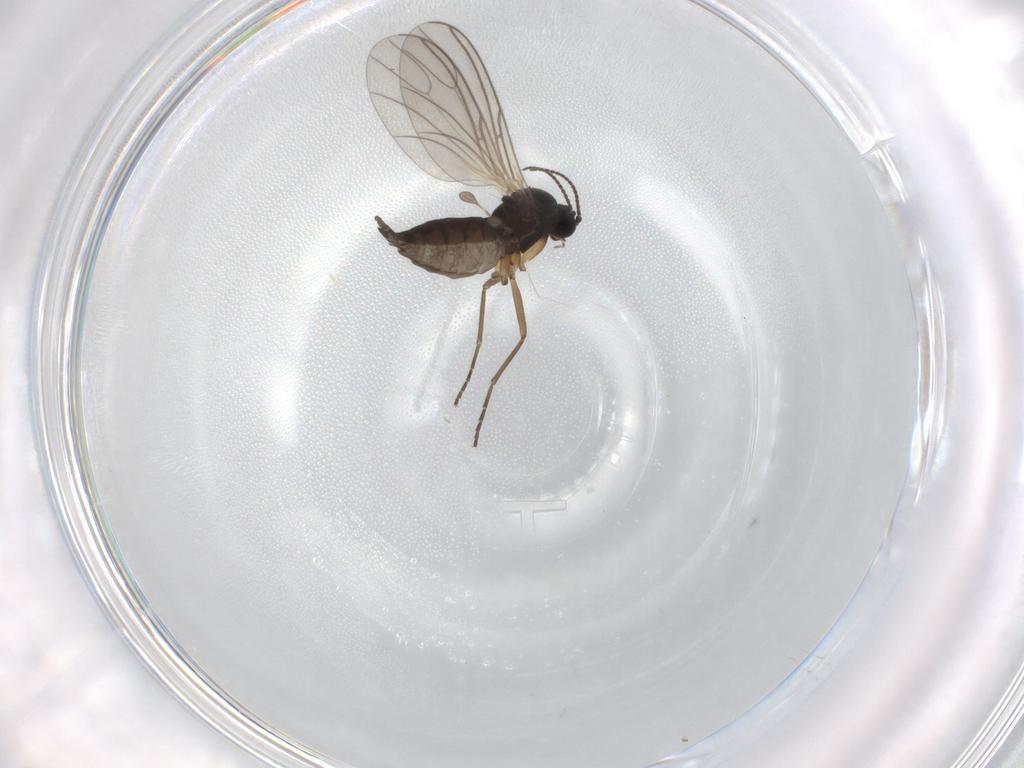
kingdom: Animalia
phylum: Arthropoda
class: Insecta
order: Diptera
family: Sciaridae
